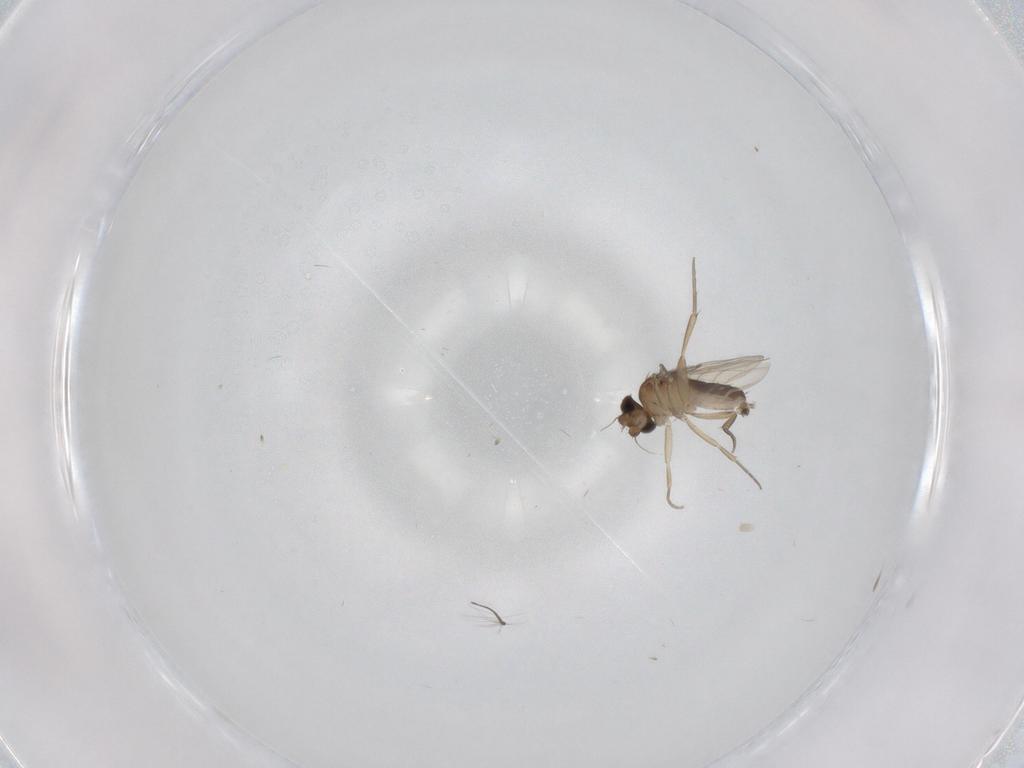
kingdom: Animalia
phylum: Arthropoda
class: Insecta
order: Diptera
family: Phoridae
